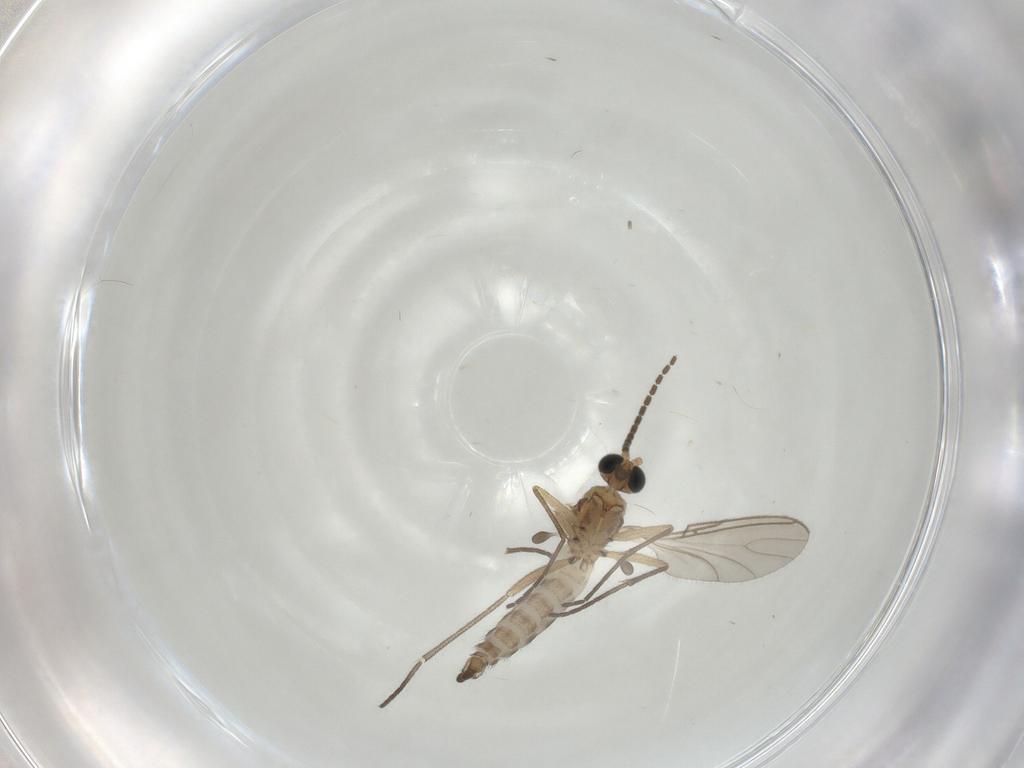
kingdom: Animalia
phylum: Arthropoda
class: Insecta
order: Diptera
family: Sciaridae
